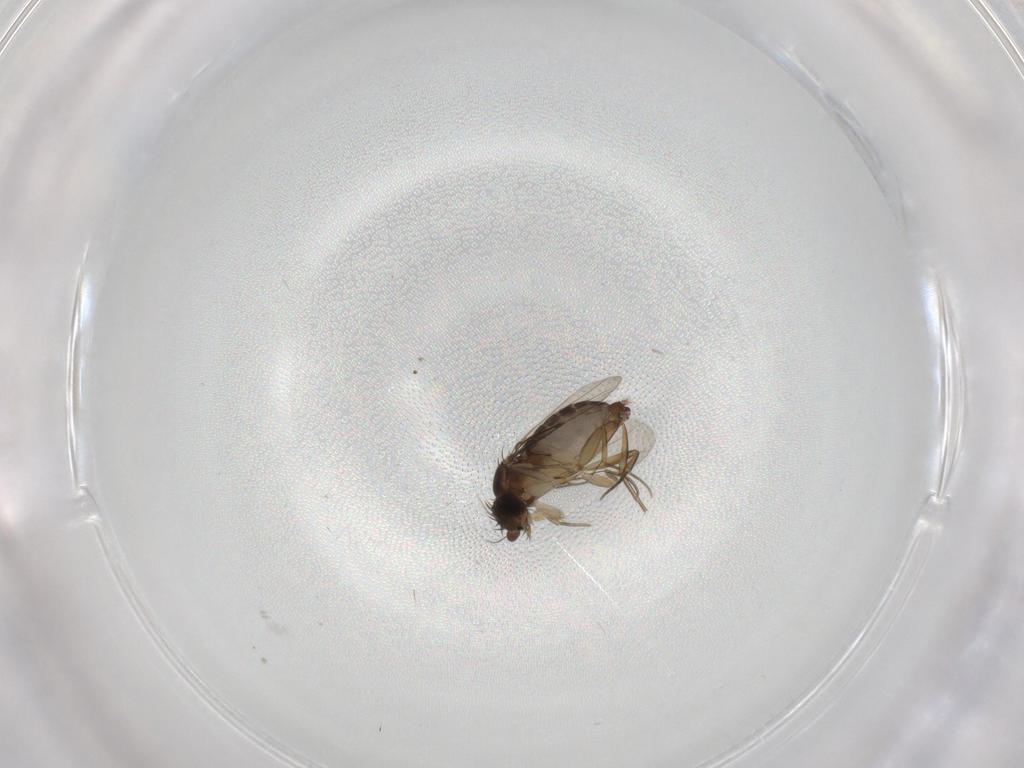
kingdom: Animalia
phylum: Arthropoda
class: Insecta
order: Diptera
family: Phoridae
